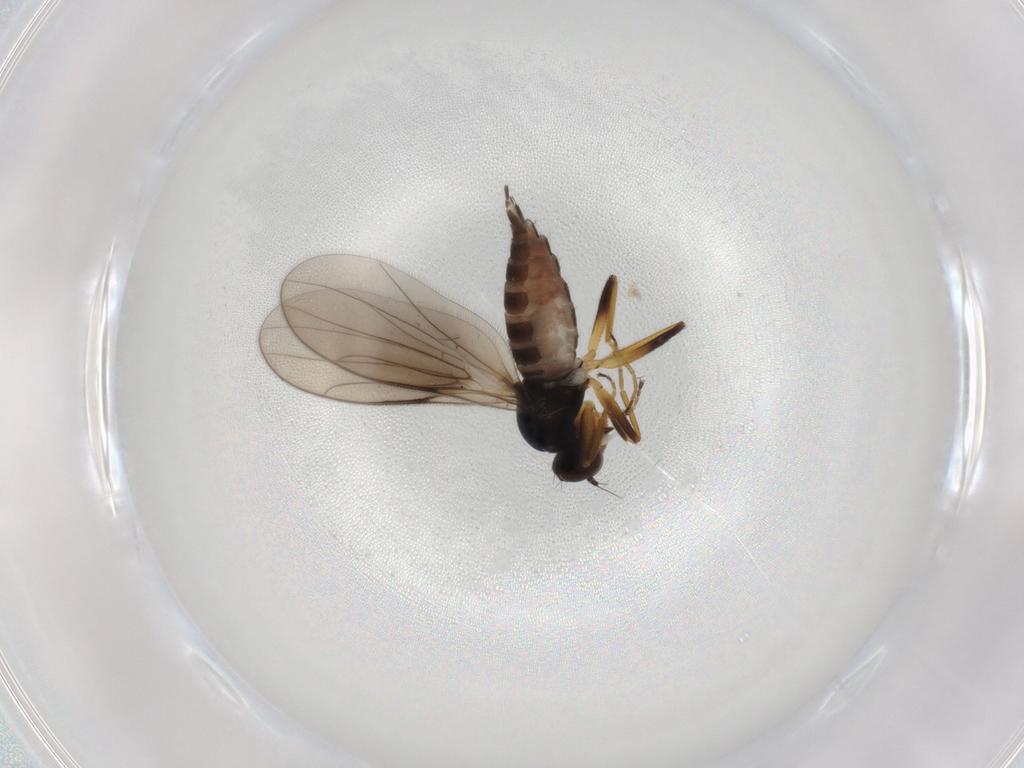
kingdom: Animalia
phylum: Arthropoda
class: Insecta
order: Diptera
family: Hybotidae
